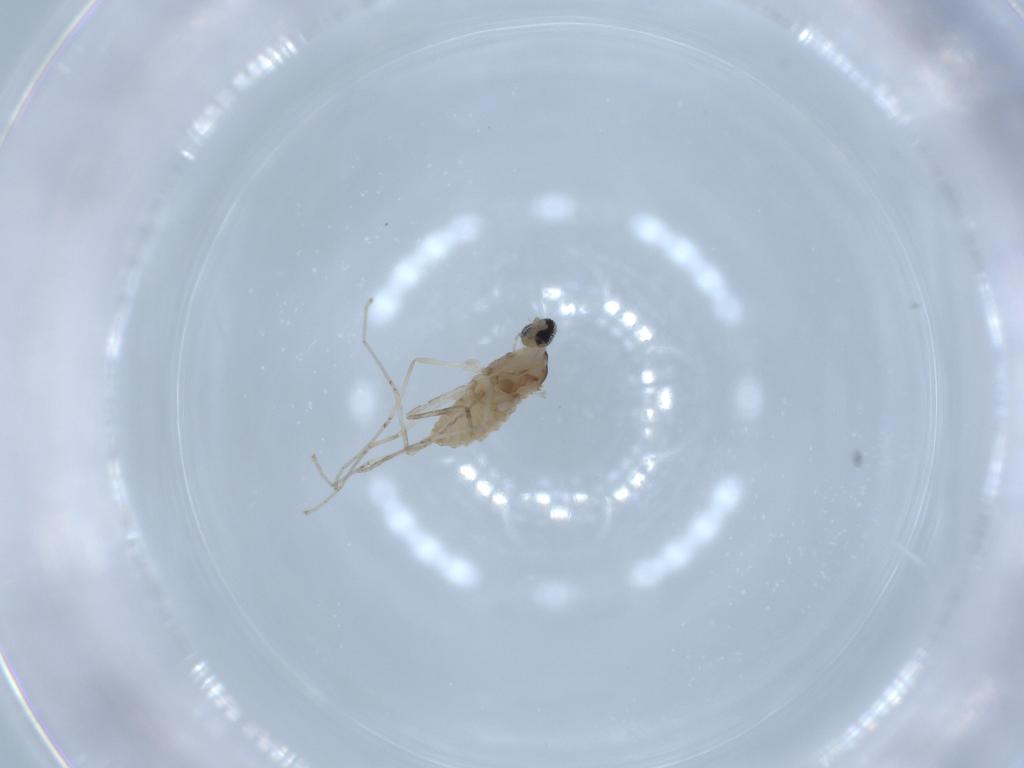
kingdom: Animalia
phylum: Arthropoda
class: Insecta
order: Diptera
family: Cecidomyiidae
